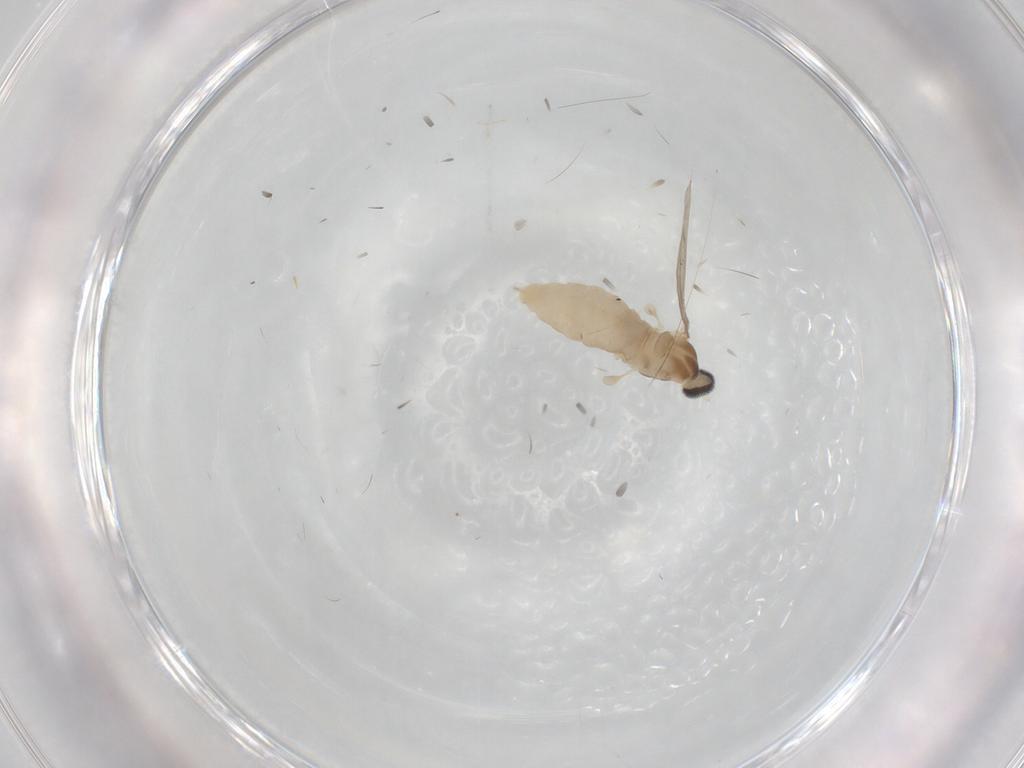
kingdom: Animalia
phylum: Arthropoda
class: Insecta
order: Diptera
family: Cecidomyiidae
